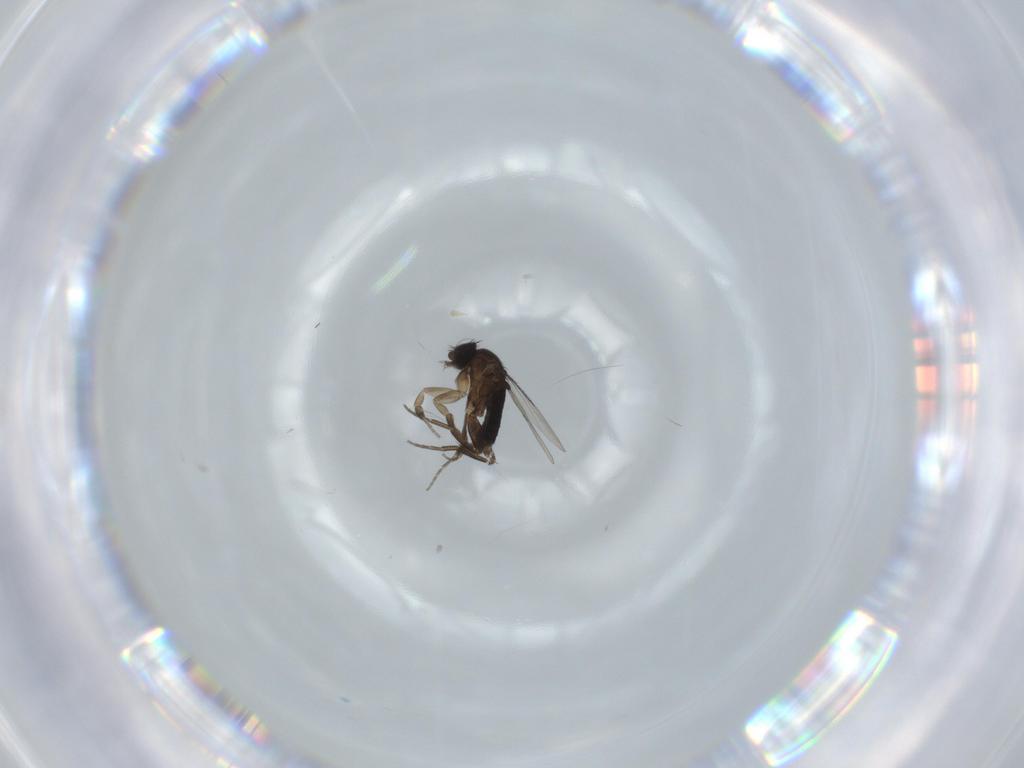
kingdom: Animalia
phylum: Arthropoda
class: Insecta
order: Diptera
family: Phoridae
